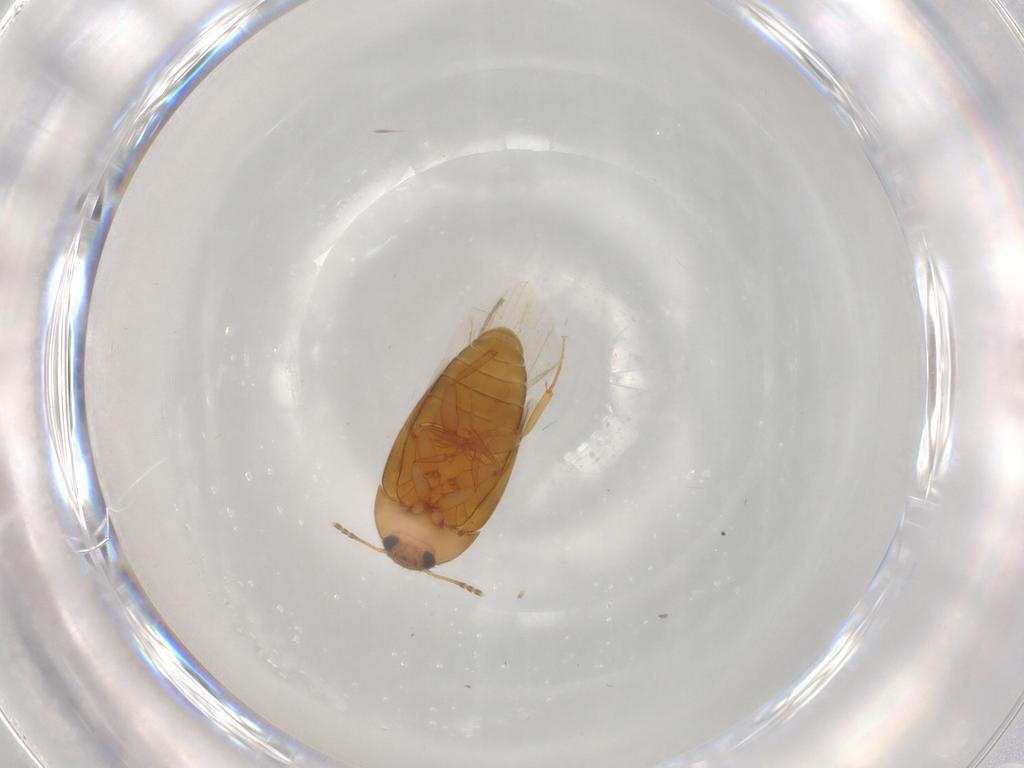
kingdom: Animalia
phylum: Arthropoda
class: Insecta
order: Coleoptera
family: Mycetophagidae
